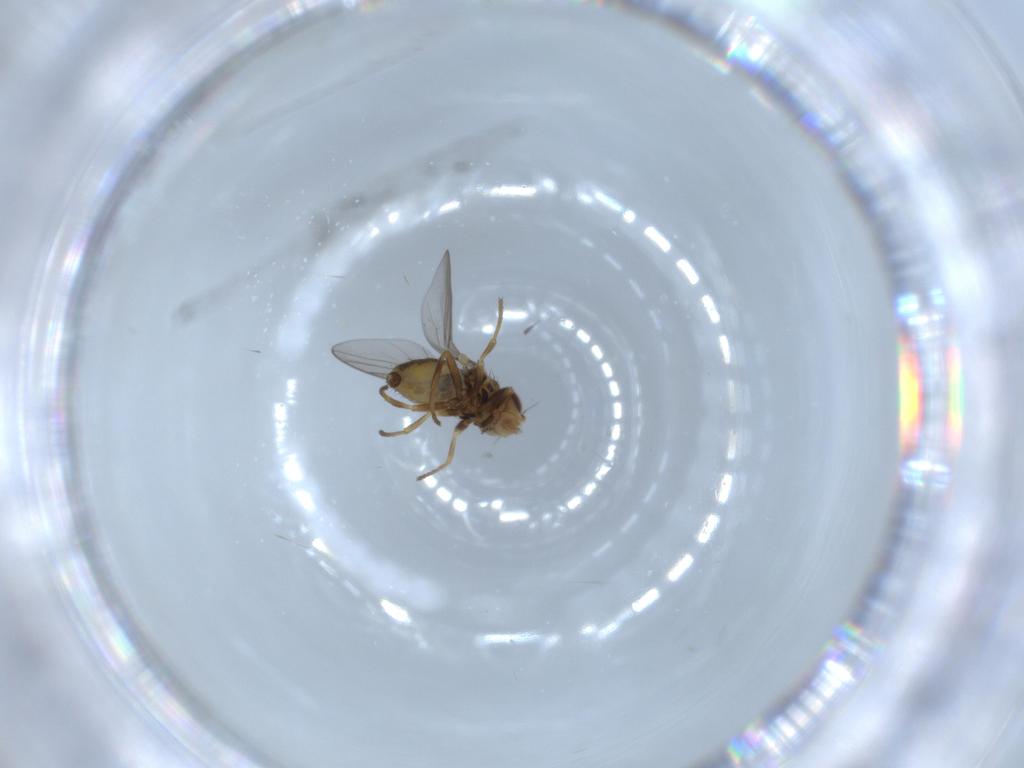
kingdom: Animalia
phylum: Arthropoda
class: Insecta
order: Diptera
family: Chloropidae
